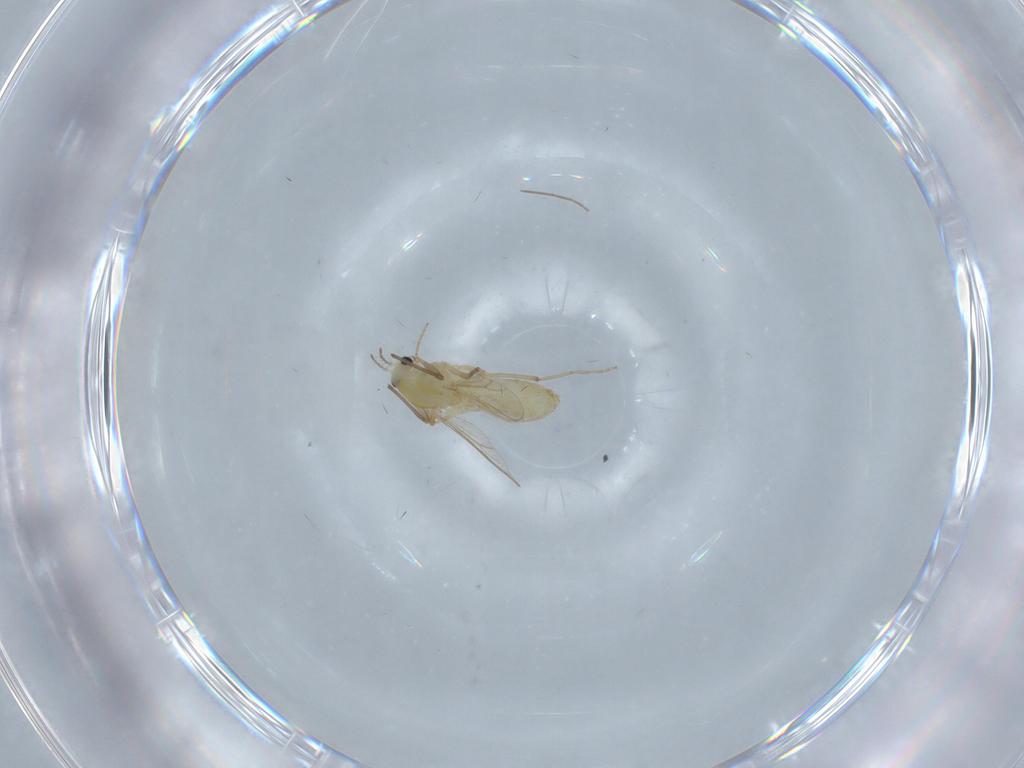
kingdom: Animalia
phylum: Arthropoda
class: Insecta
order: Diptera
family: Chironomidae
